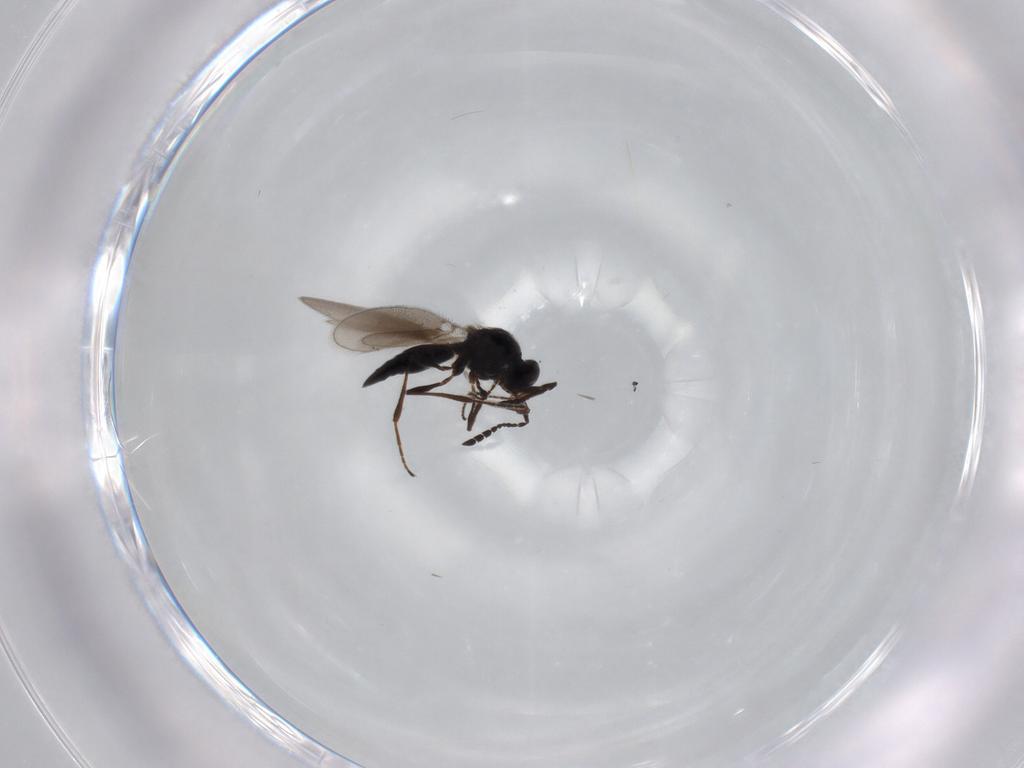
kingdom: Animalia
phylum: Arthropoda
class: Insecta
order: Hymenoptera
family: Platygastridae
